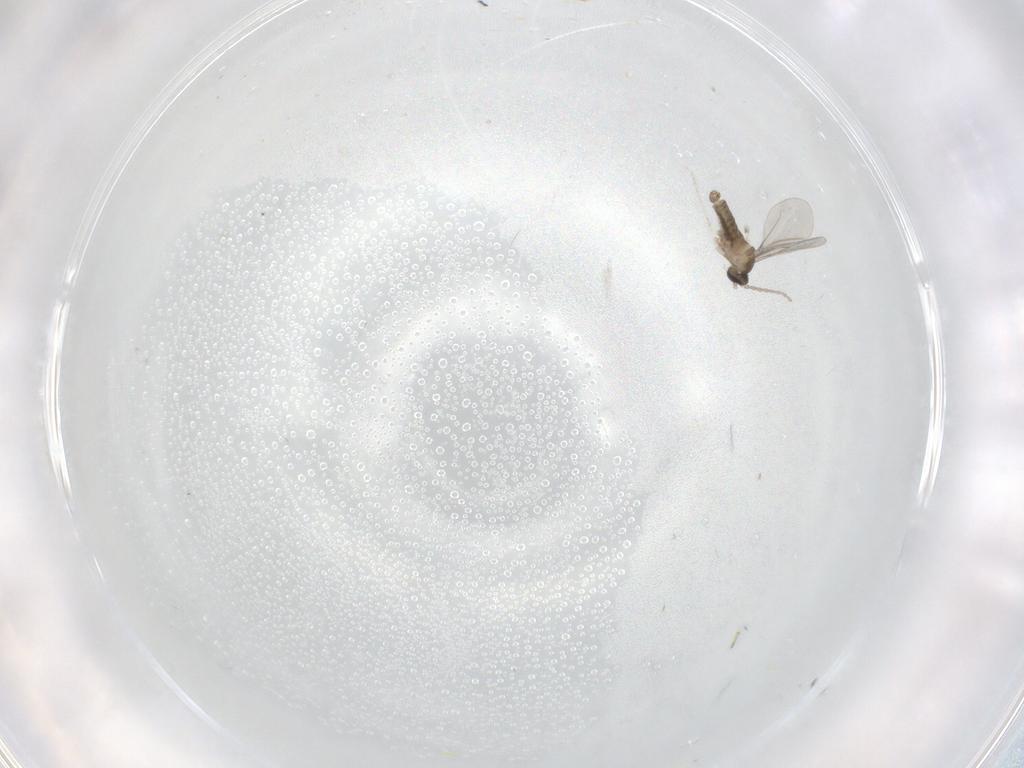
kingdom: Animalia
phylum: Arthropoda
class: Insecta
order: Diptera
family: Cecidomyiidae
